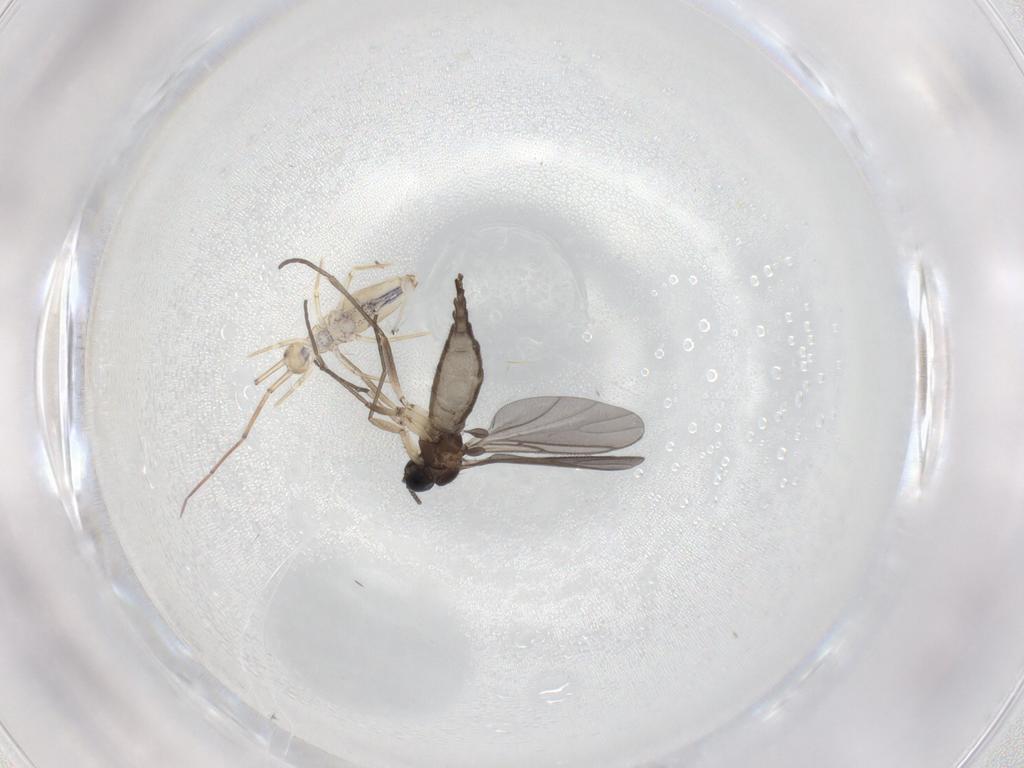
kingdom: Animalia
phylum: Arthropoda
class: Insecta
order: Diptera
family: Sciaridae
